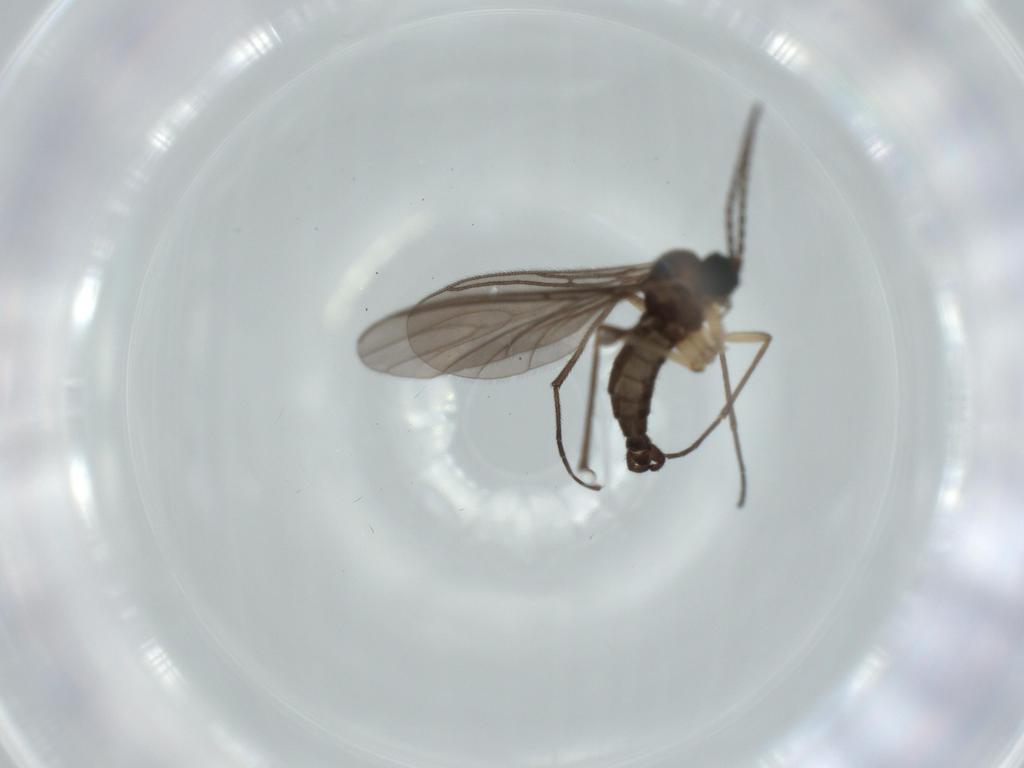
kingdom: Animalia
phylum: Arthropoda
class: Insecta
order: Diptera
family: Sciaridae
